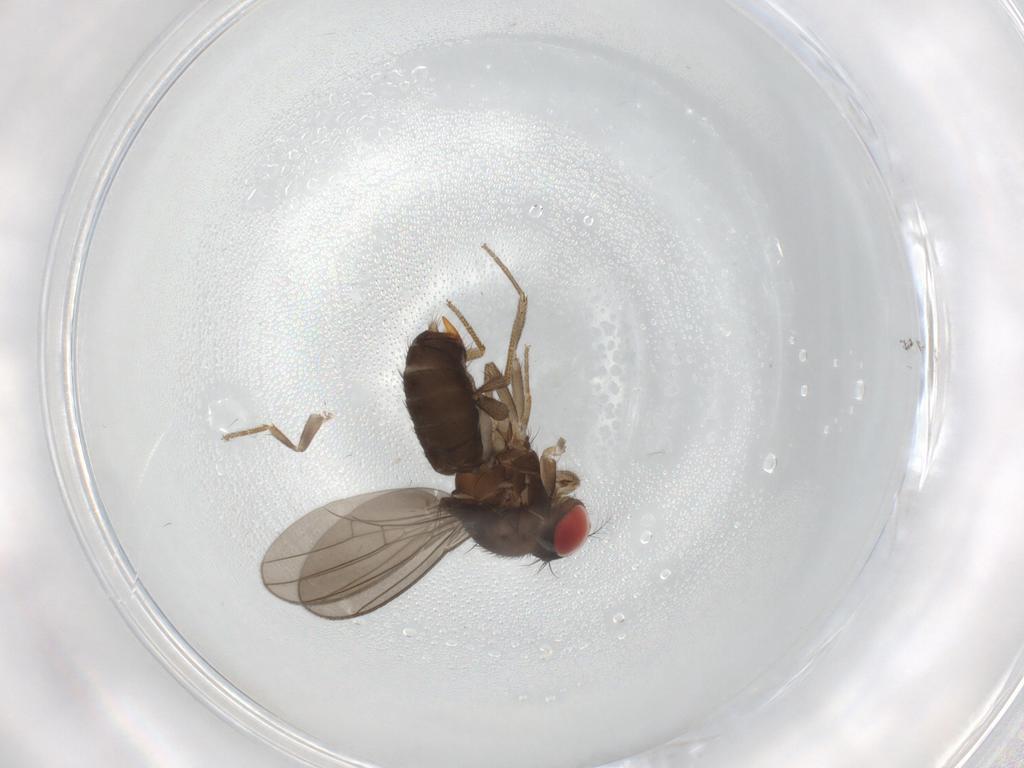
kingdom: Animalia
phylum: Arthropoda
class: Insecta
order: Diptera
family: Drosophilidae
